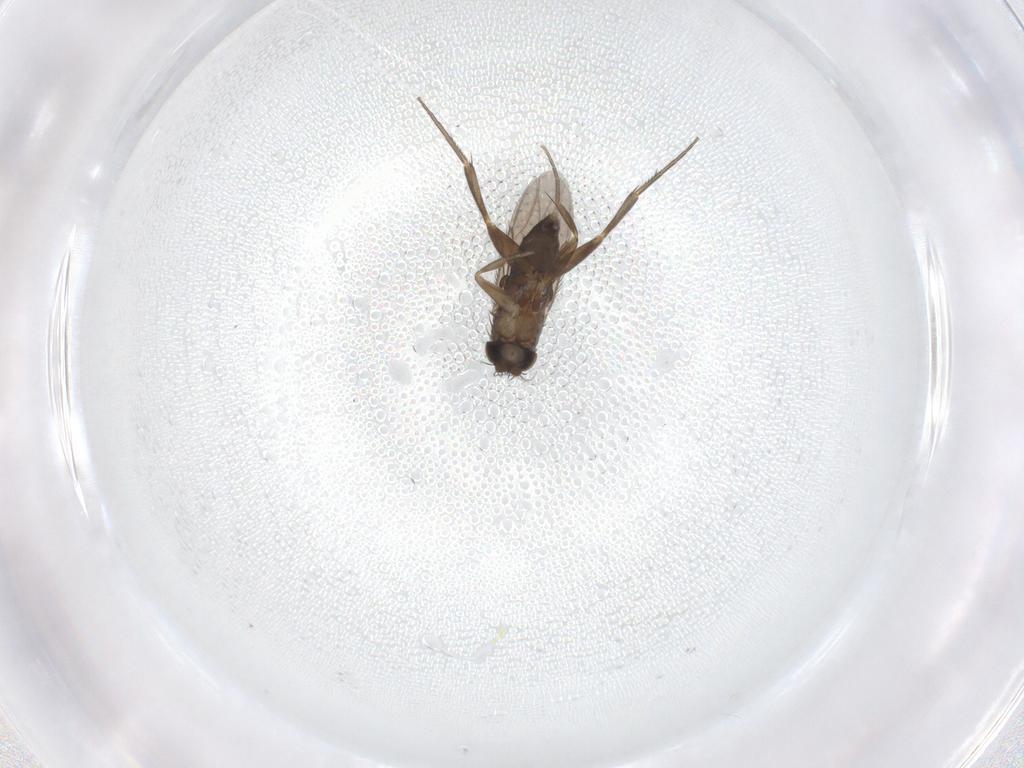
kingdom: Animalia
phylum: Arthropoda
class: Insecta
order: Diptera
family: Phoridae
